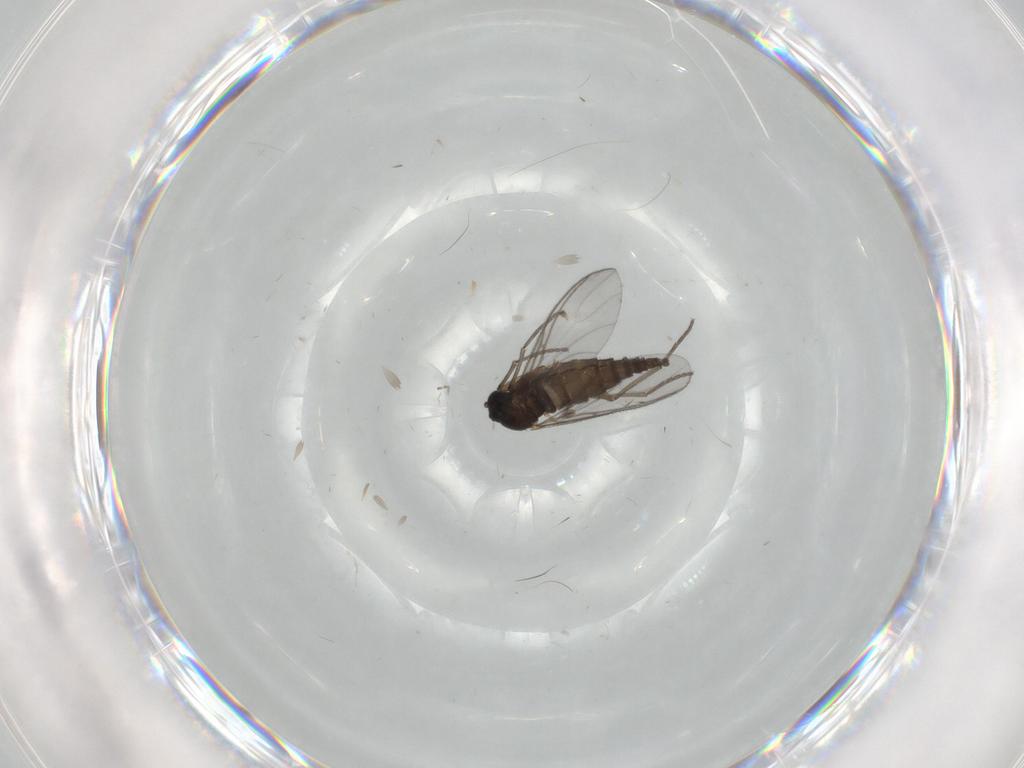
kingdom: Animalia
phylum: Arthropoda
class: Insecta
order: Diptera
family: Sciaridae
